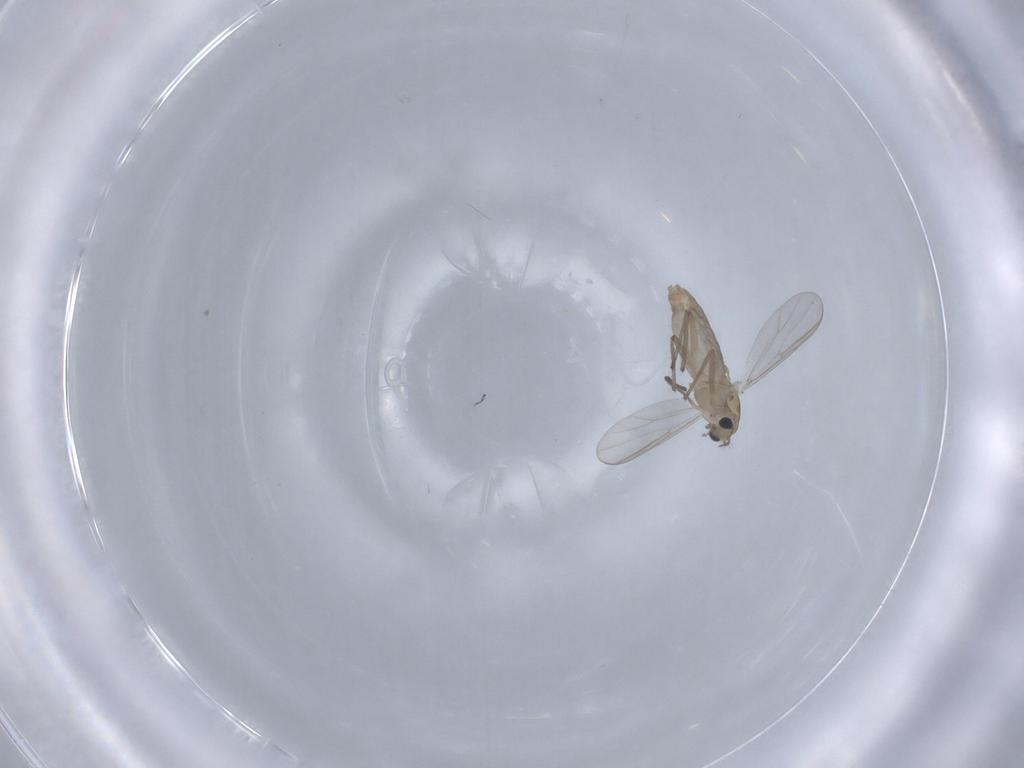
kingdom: Animalia
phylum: Arthropoda
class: Insecta
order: Diptera
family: Chironomidae
